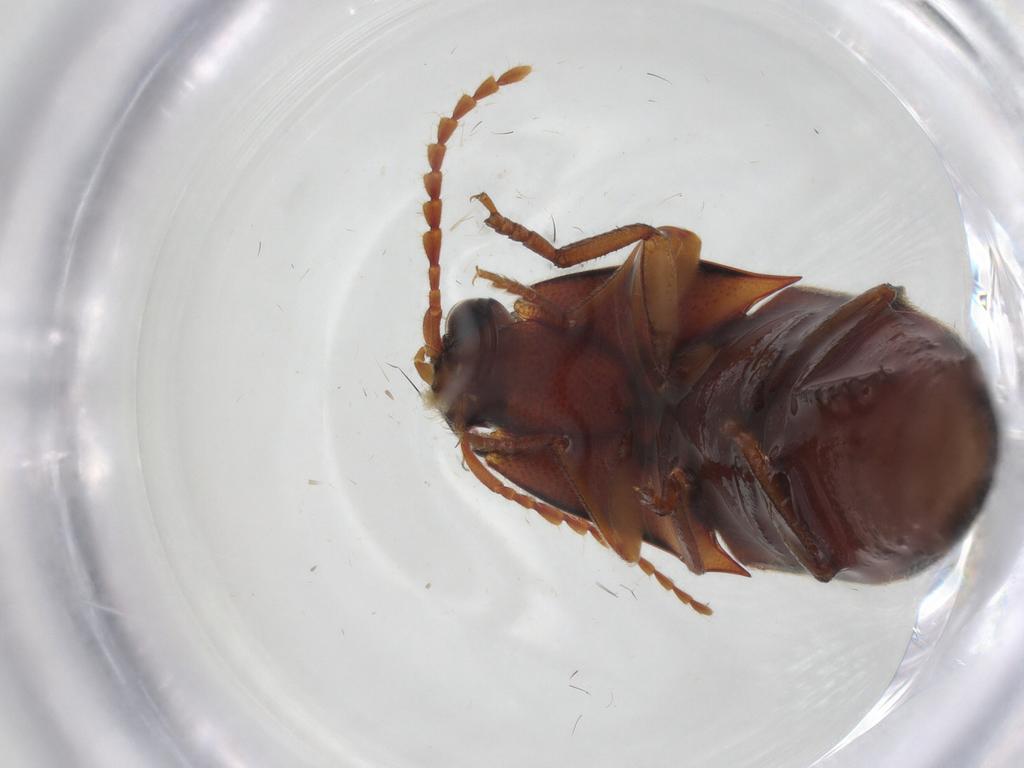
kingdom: Animalia
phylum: Arthropoda
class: Insecta
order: Coleoptera
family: Elateridae
